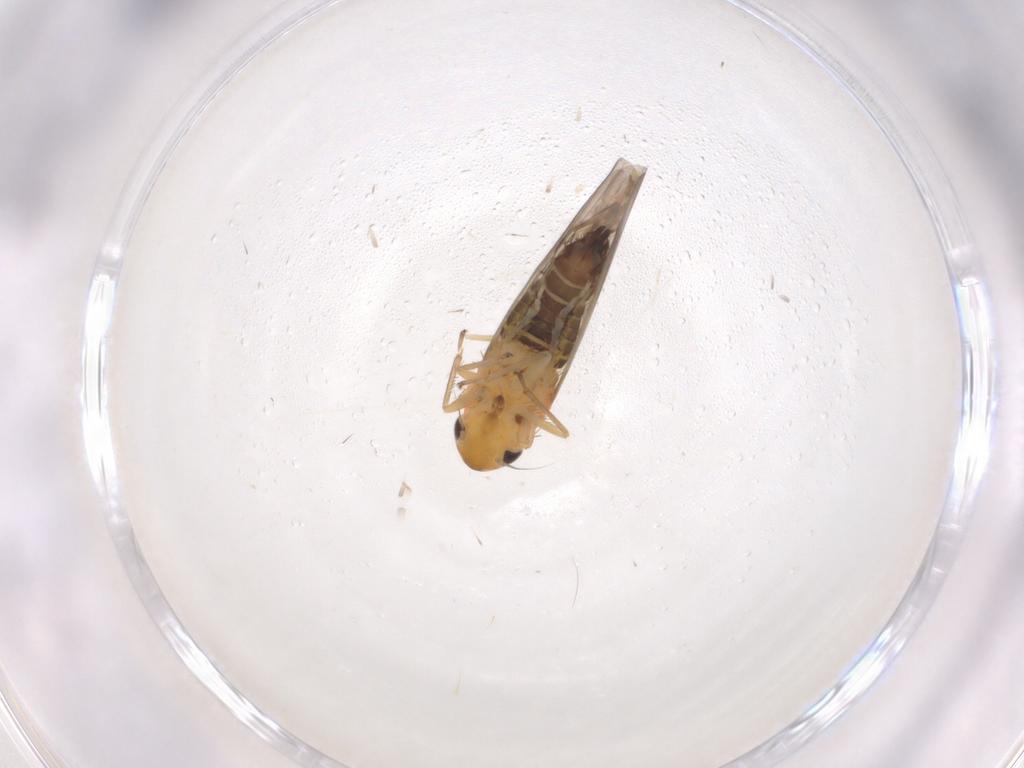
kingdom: Animalia
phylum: Arthropoda
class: Insecta
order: Hemiptera
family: Cicadellidae
